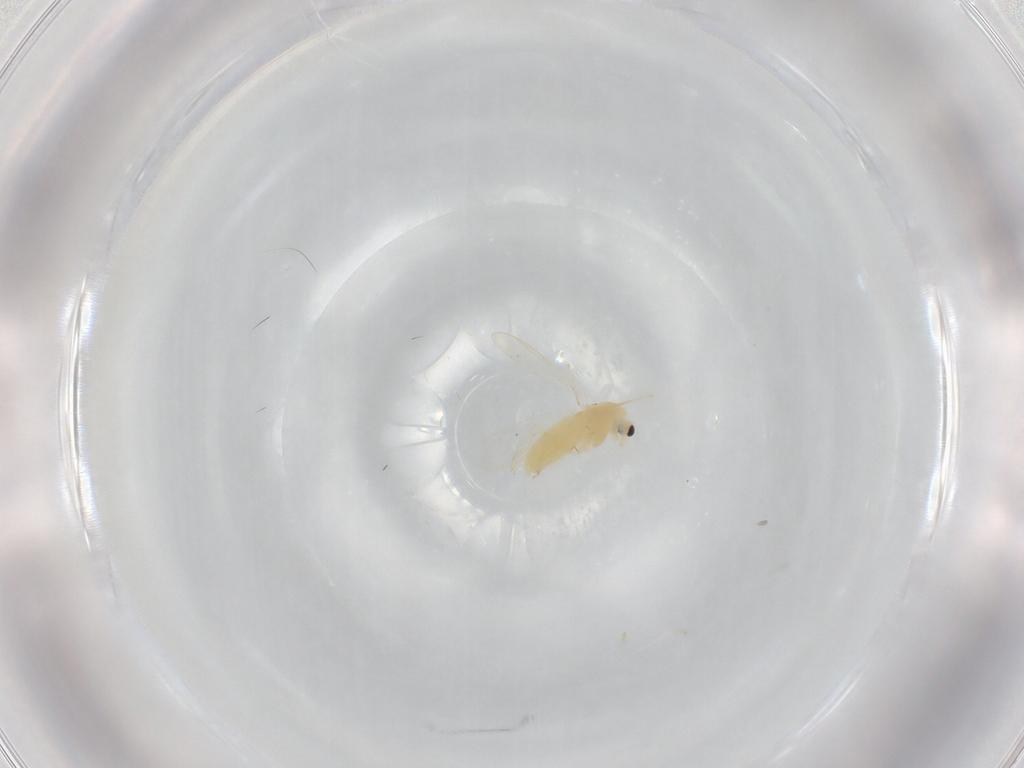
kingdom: Animalia
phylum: Arthropoda
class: Insecta
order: Diptera
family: Chironomidae
